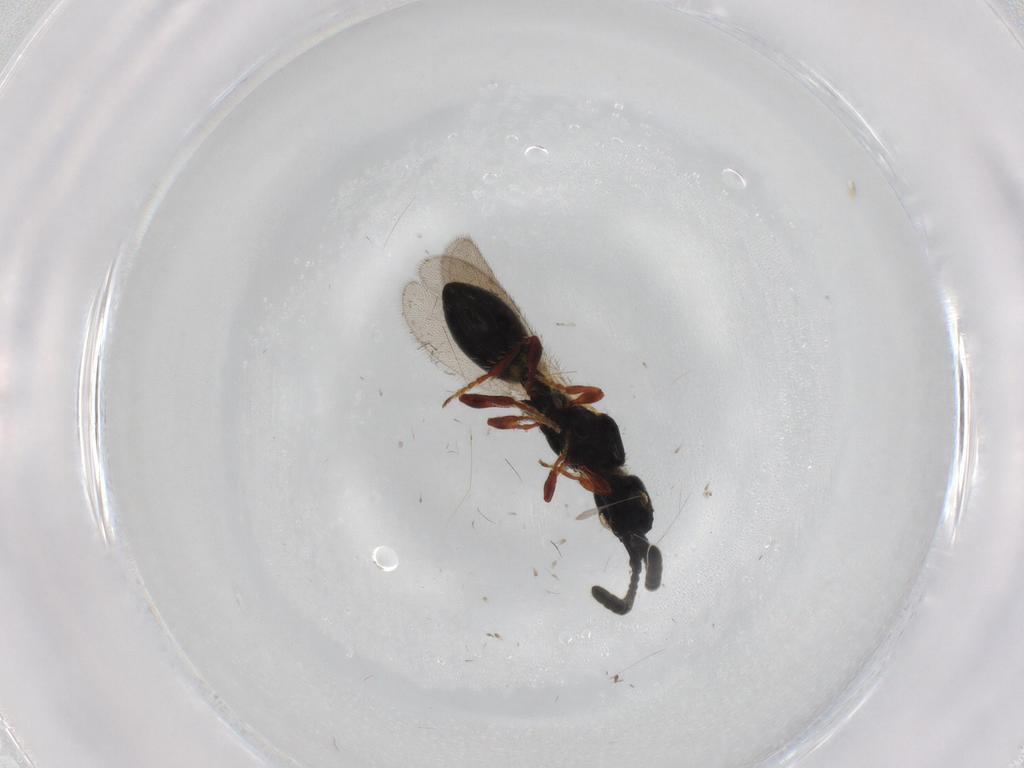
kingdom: Animalia
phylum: Arthropoda
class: Insecta
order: Hymenoptera
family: Diapriidae
